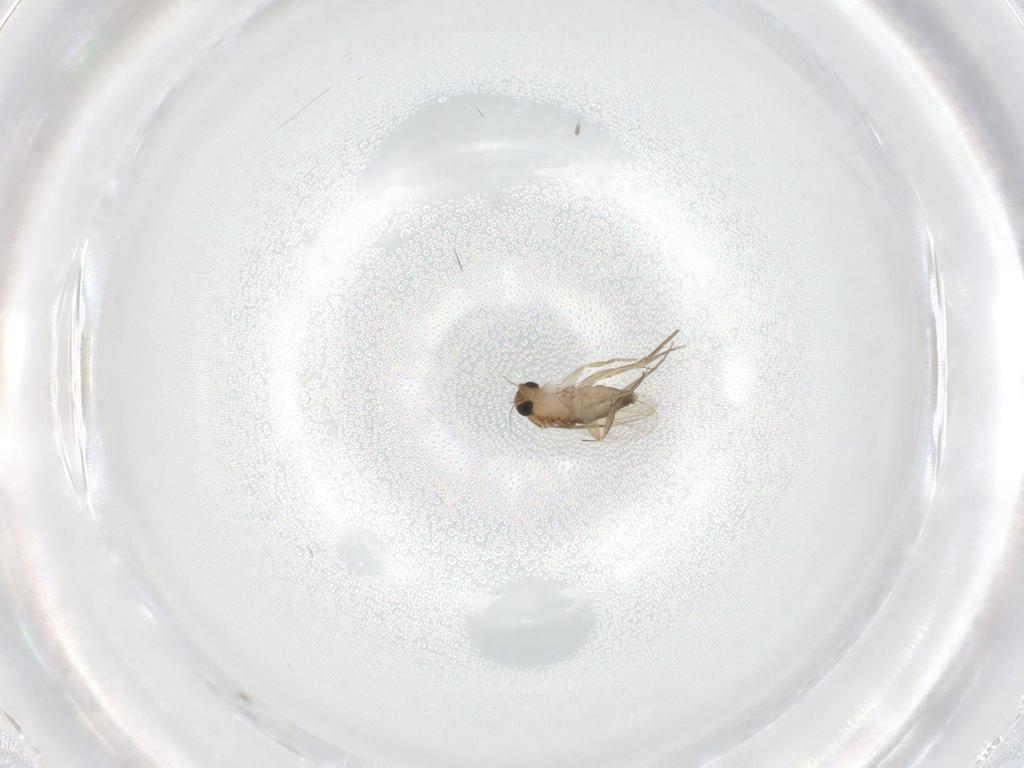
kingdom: Animalia
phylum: Arthropoda
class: Insecta
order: Diptera
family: Phoridae
